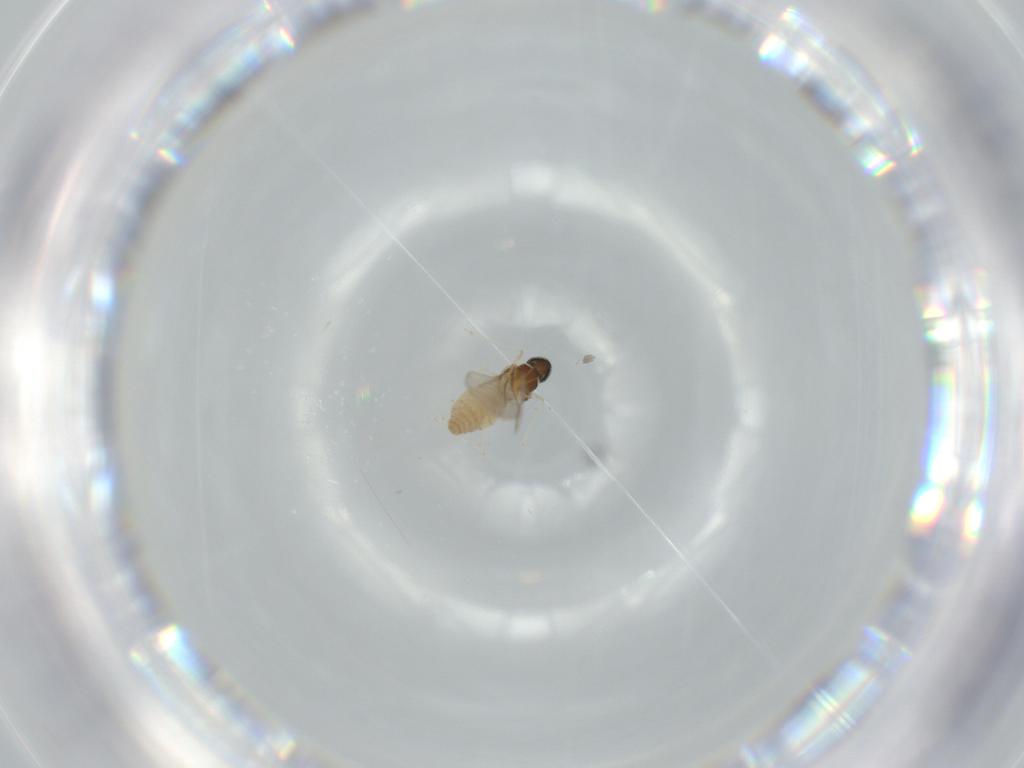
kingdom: Animalia
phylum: Arthropoda
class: Insecta
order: Diptera
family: Cecidomyiidae
